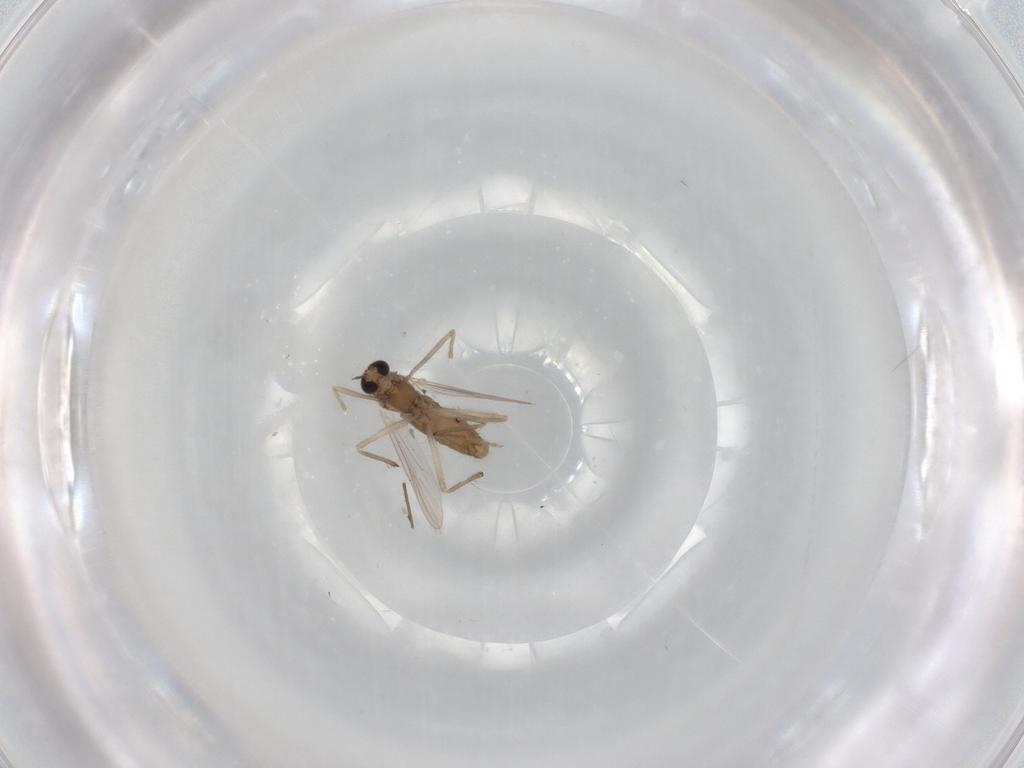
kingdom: Animalia
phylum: Arthropoda
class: Insecta
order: Diptera
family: Chironomidae
